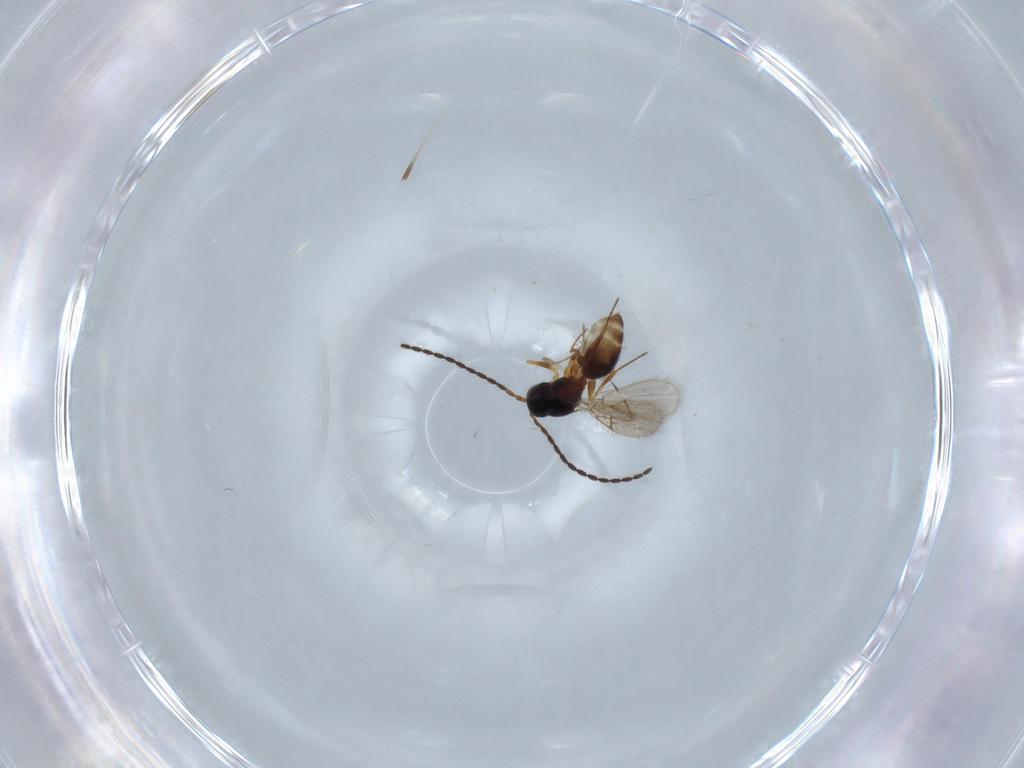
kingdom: Animalia
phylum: Arthropoda
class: Insecta
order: Hymenoptera
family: Figitidae
